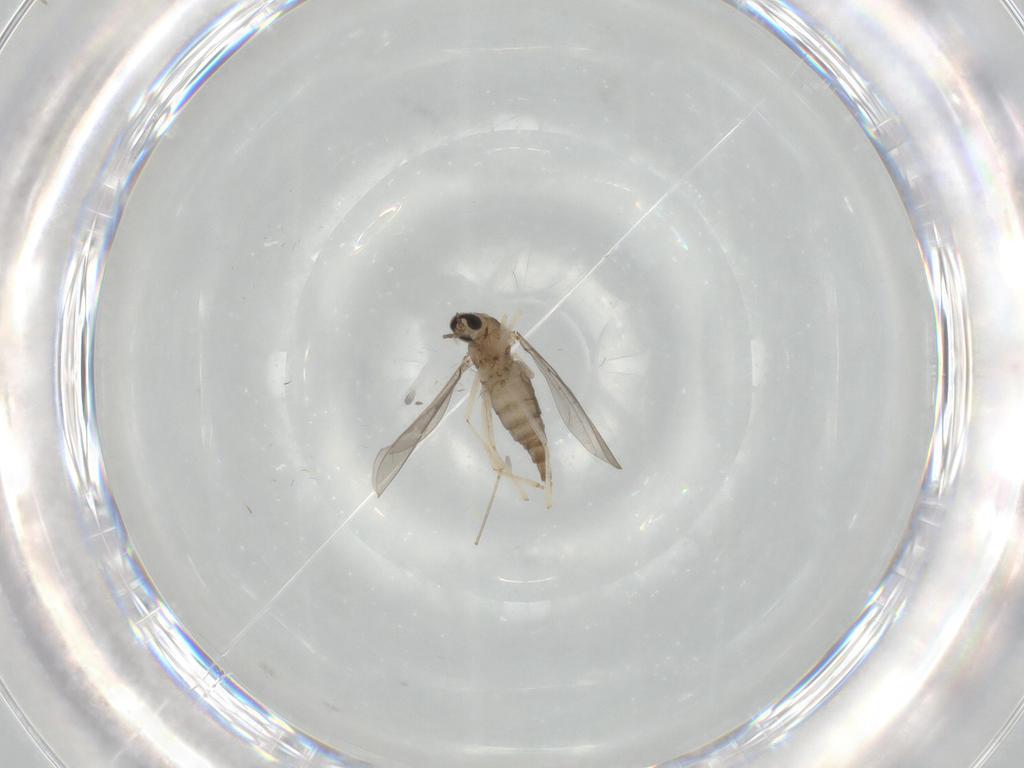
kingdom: Animalia
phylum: Arthropoda
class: Insecta
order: Diptera
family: Cecidomyiidae
